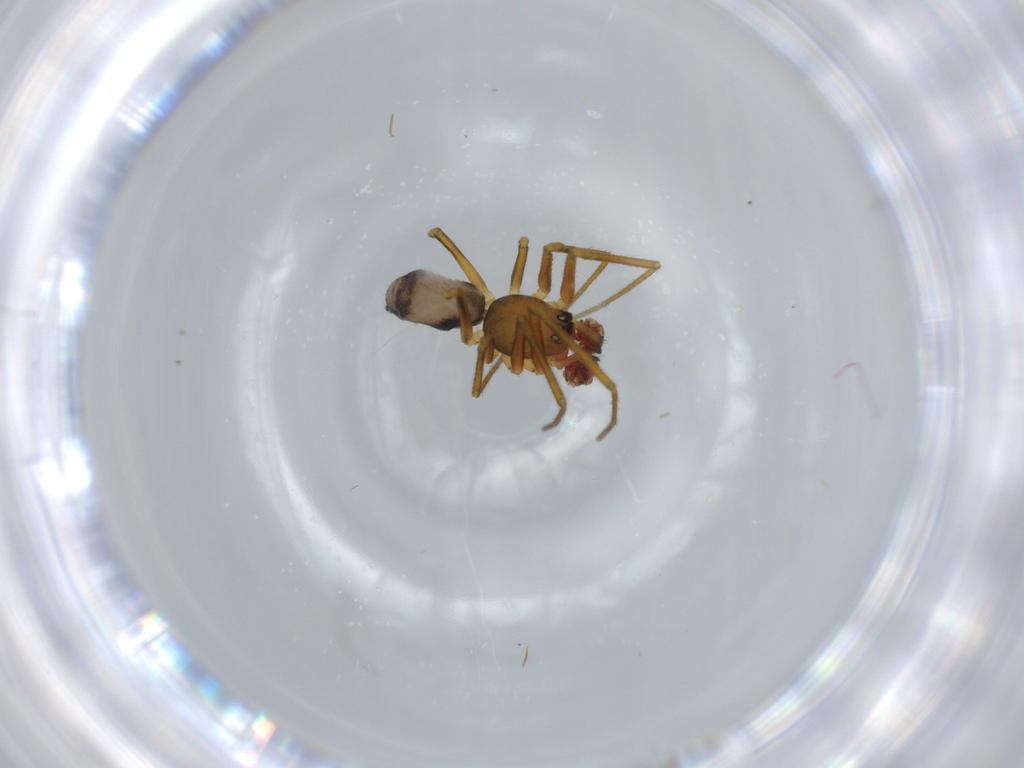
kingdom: Animalia
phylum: Arthropoda
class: Arachnida
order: Araneae
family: Linyphiidae
